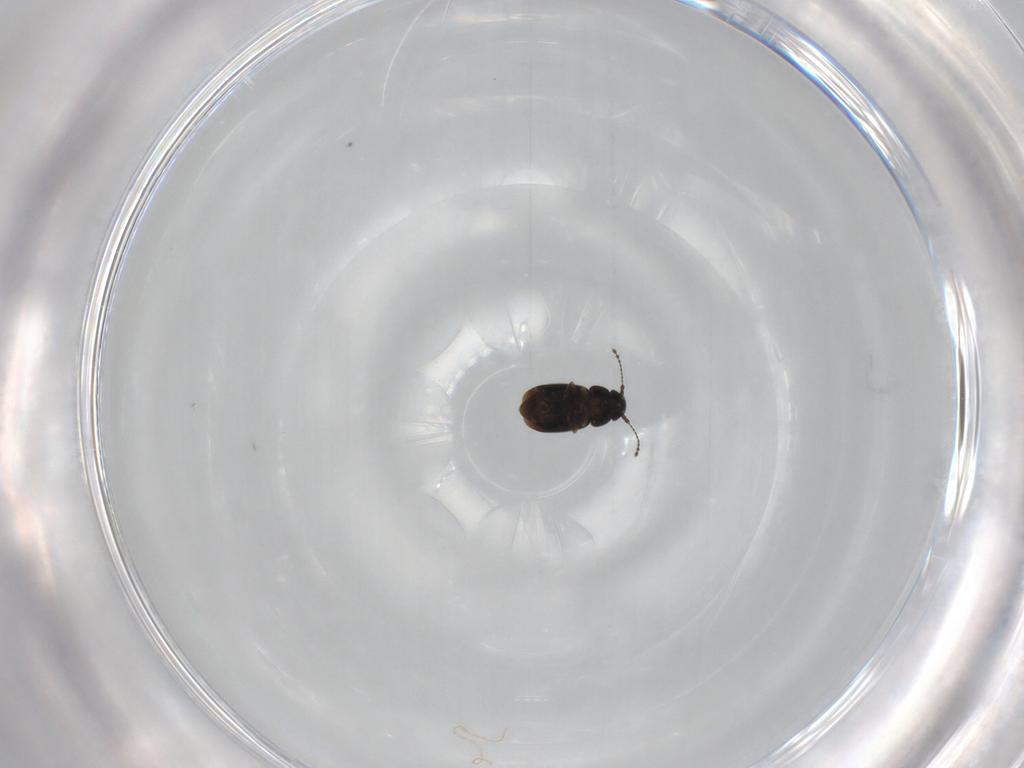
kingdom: Animalia
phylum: Arthropoda
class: Insecta
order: Coleoptera
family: Ptiliidae
